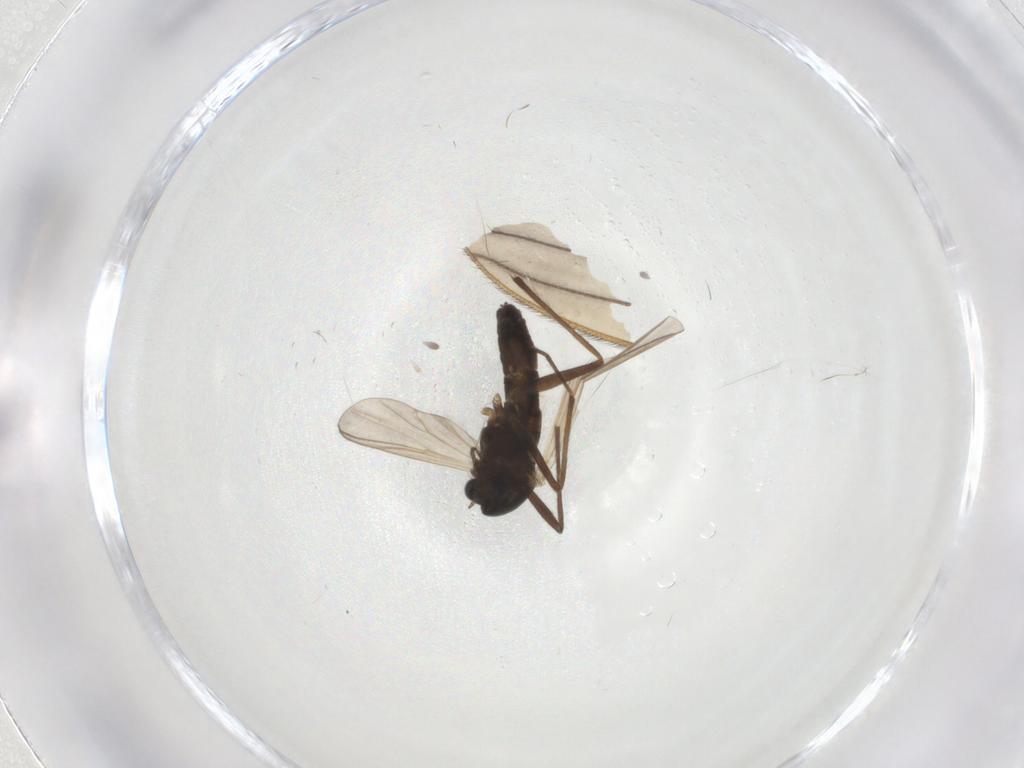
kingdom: Animalia
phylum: Arthropoda
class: Insecta
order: Diptera
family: Chironomidae
